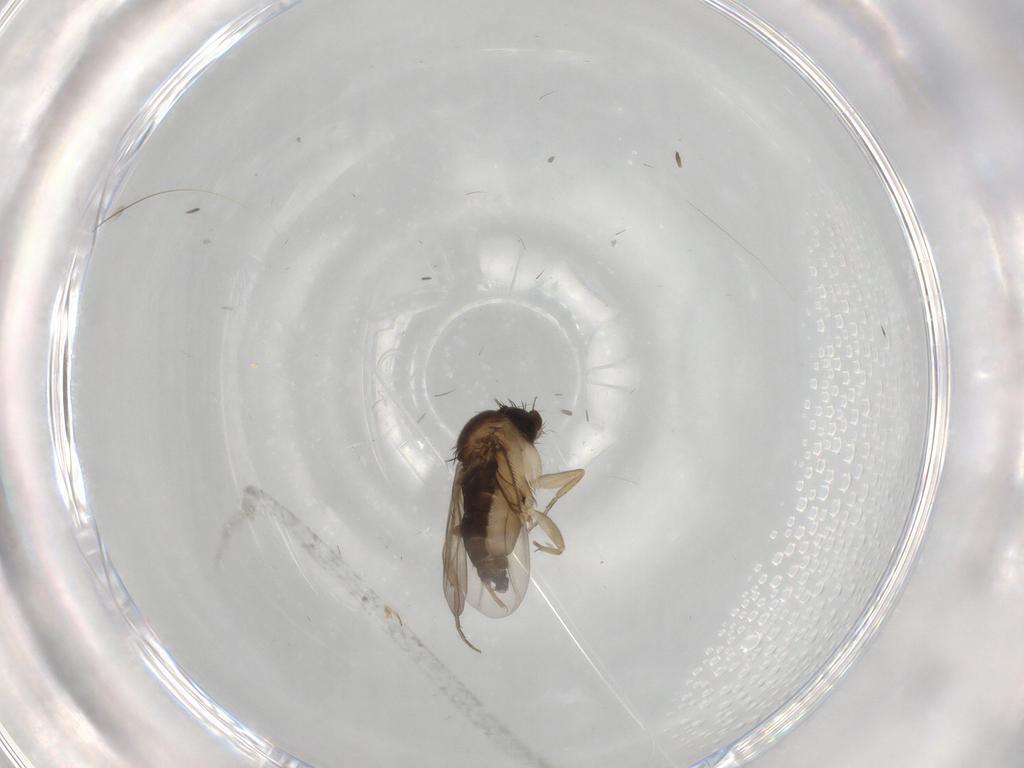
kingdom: Animalia
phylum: Arthropoda
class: Insecta
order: Diptera
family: Phoridae
